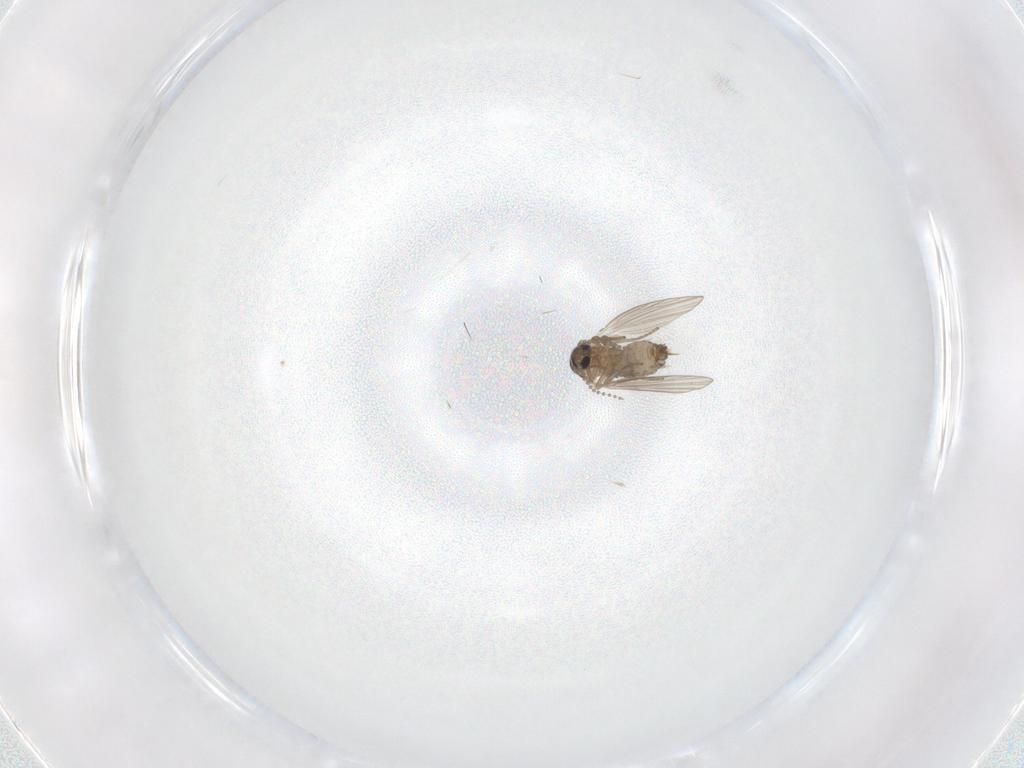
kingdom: Animalia
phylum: Arthropoda
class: Insecta
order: Diptera
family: Psychodidae
